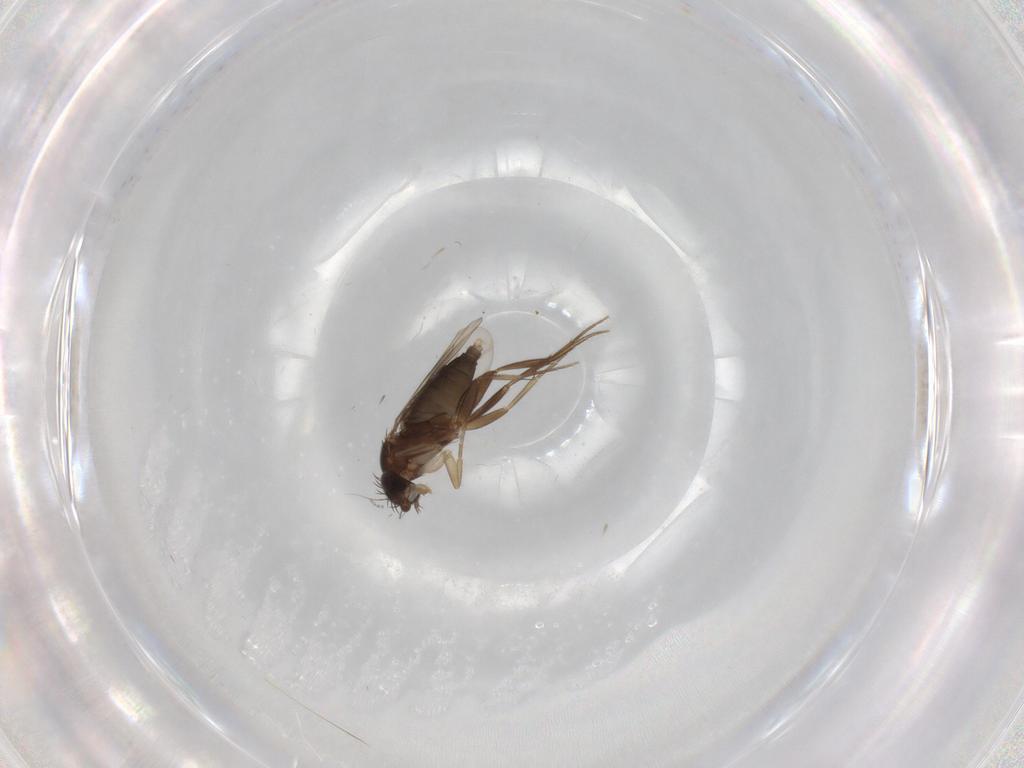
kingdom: Animalia
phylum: Arthropoda
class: Insecta
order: Diptera
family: Phoridae
